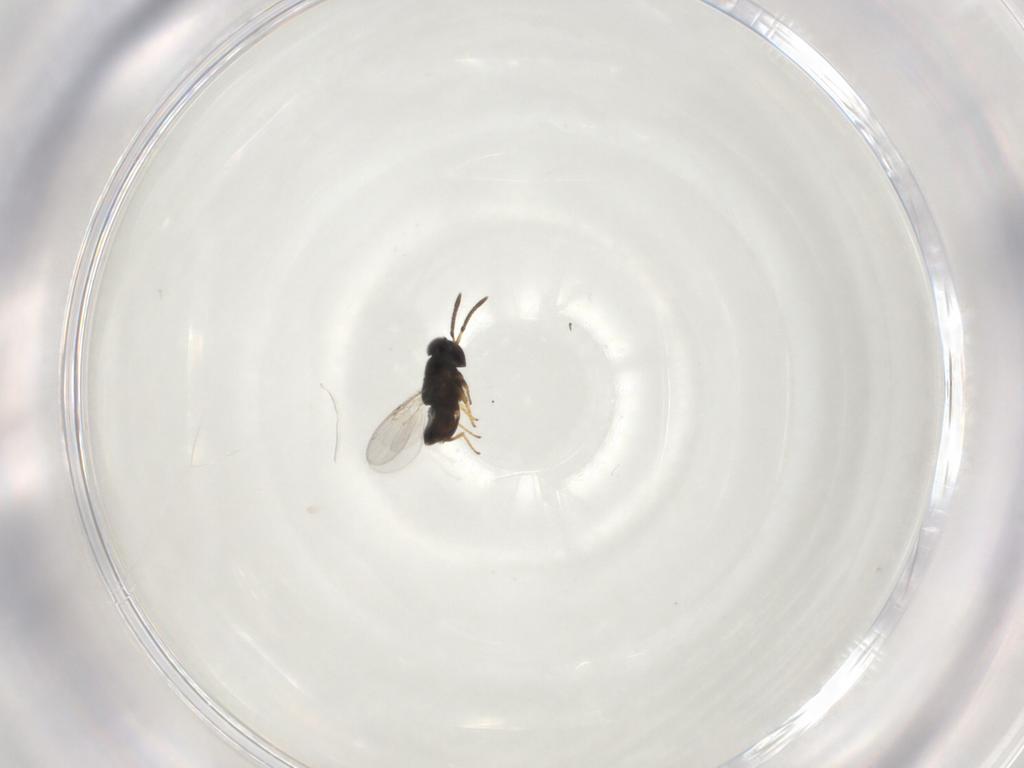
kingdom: Animalia
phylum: Arthropoda
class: Insecta
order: Hymenoptera
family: Encyrtidae
